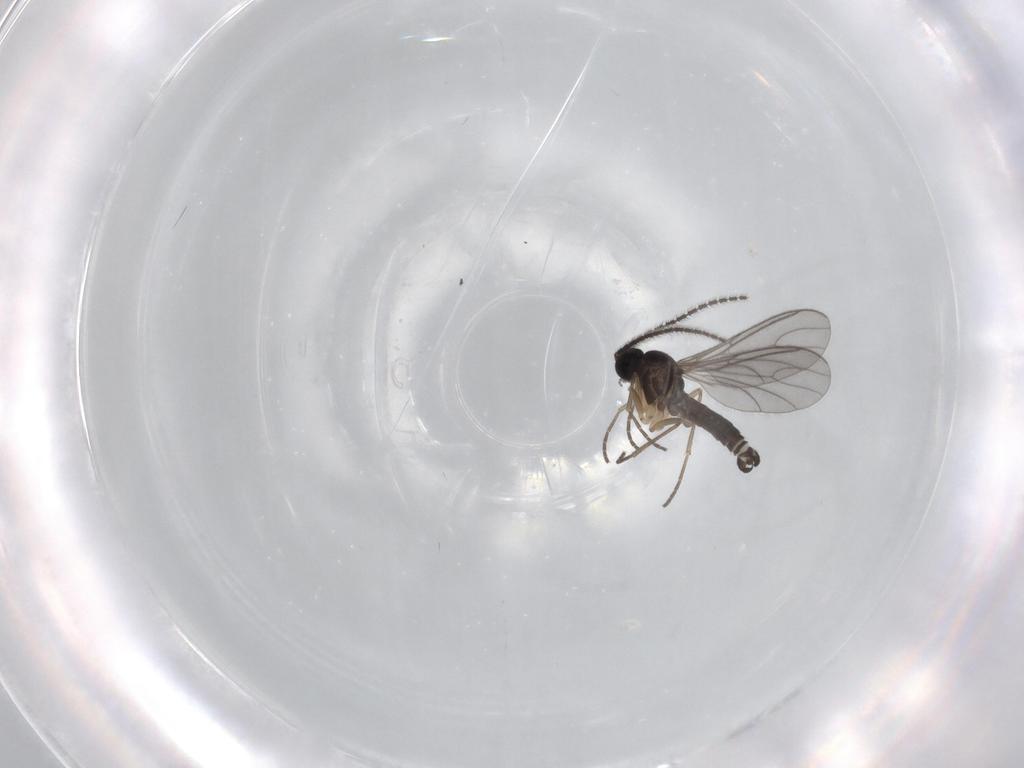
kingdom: Animalia
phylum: Arthropoda
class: Insecta
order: Diptera
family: Sciaridae
